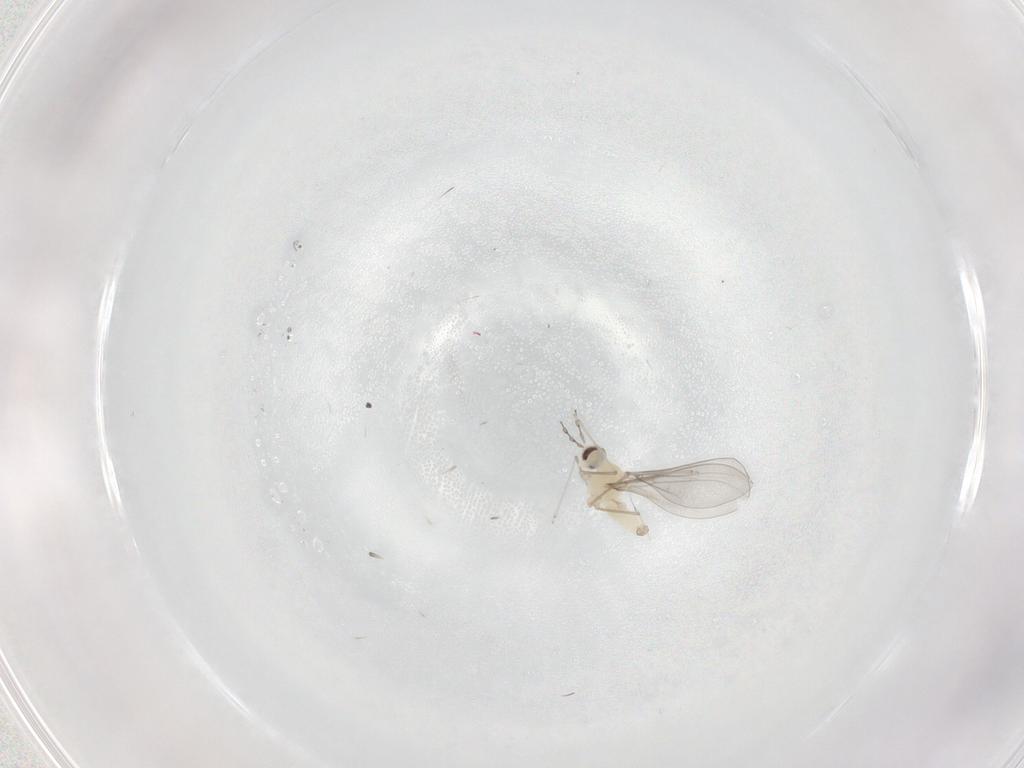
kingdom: Animalia
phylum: Arthropoda
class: Insecta
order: Diptera
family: Cecidomyiidae
